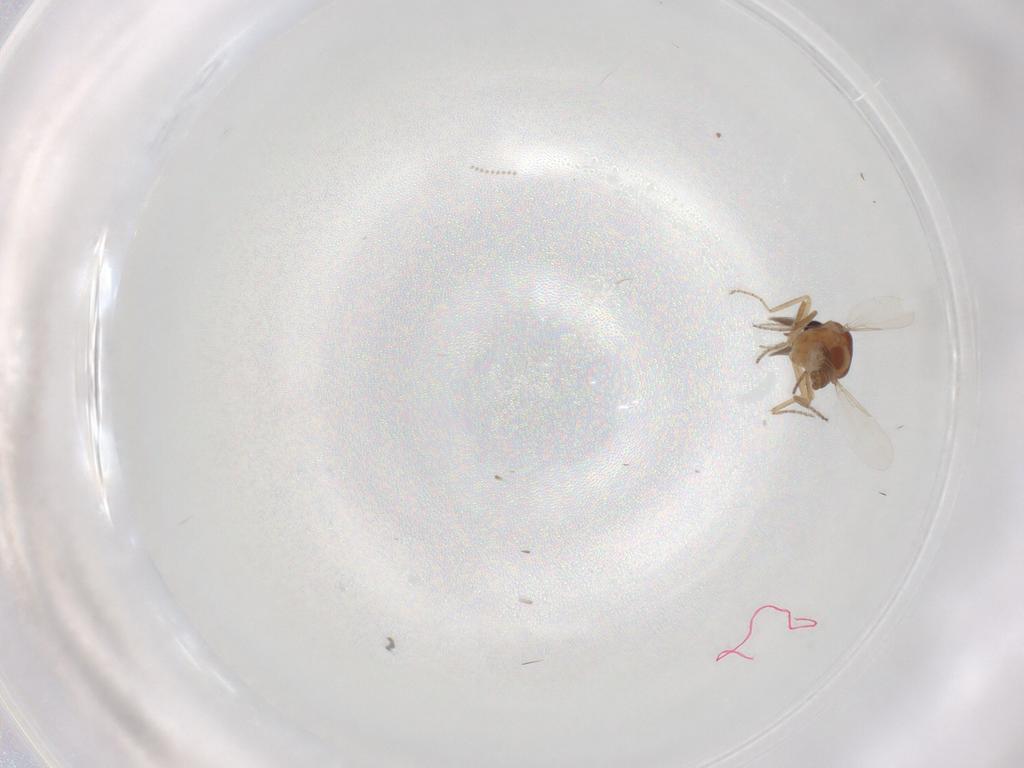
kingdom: Animalia
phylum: Arthropoda
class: Insecta
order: Diptera
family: Ceratopogonidae
